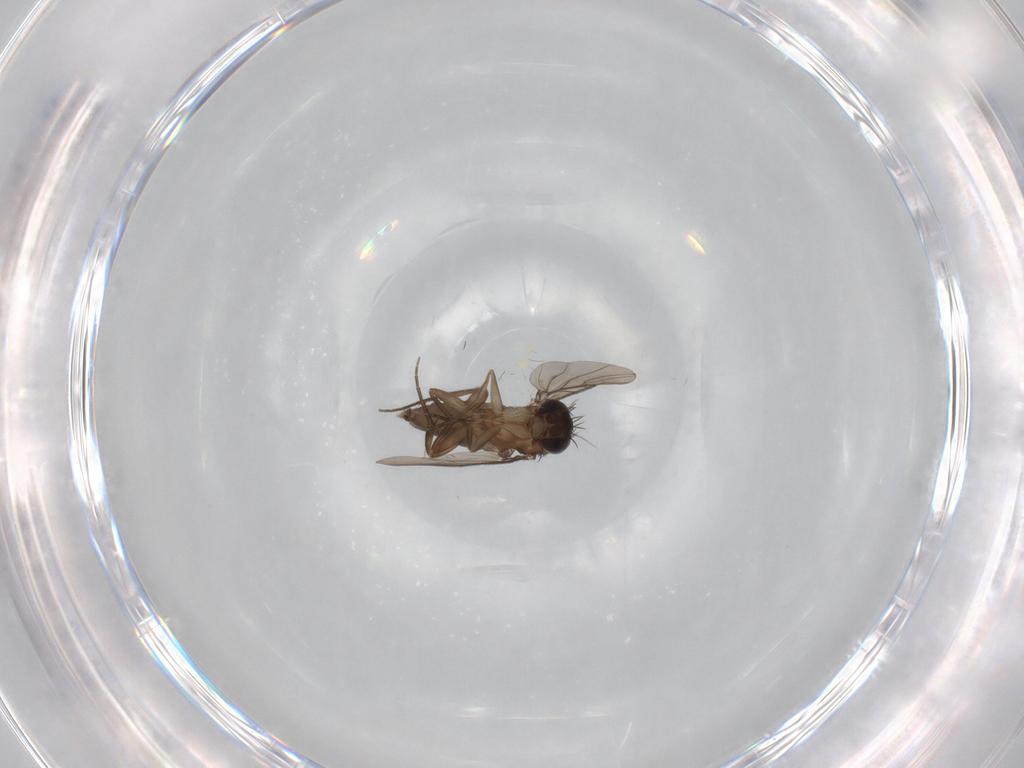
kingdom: Animalia
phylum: Arthropoda
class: Insecta
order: Diptera
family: Phoridae
